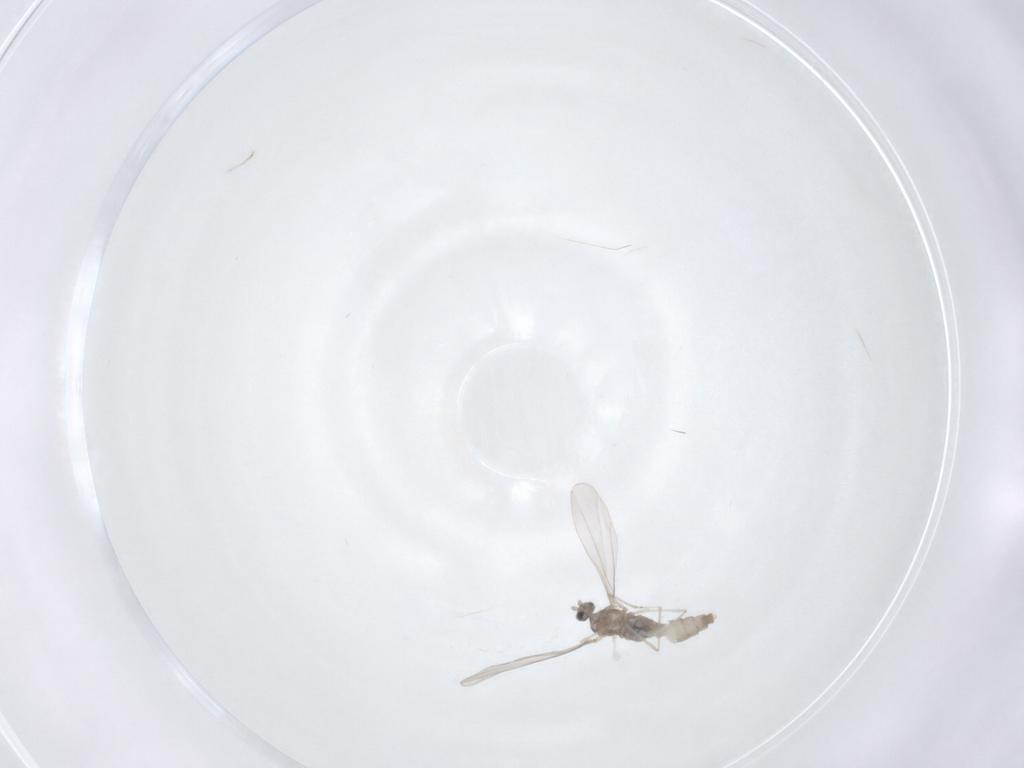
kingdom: Animalia
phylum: Arthropoda
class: Insecta
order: Diptera
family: Cecidomyiidae
